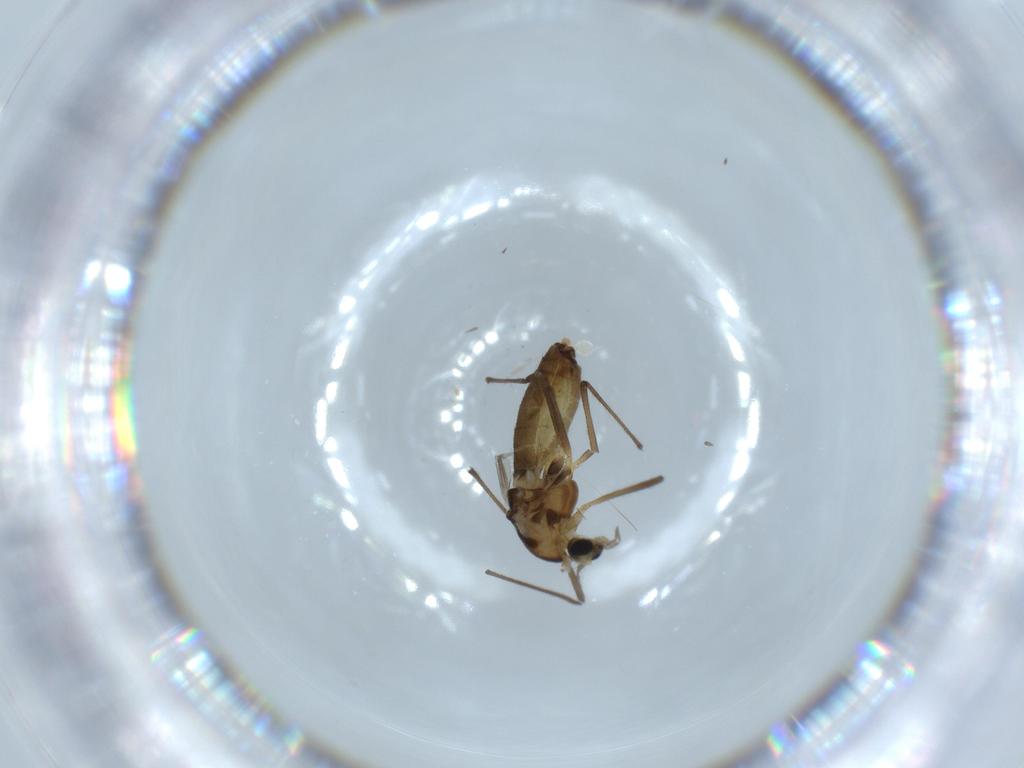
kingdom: Animalia
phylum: Arthropoda
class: Insecta
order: Diptera
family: Chironomidae
